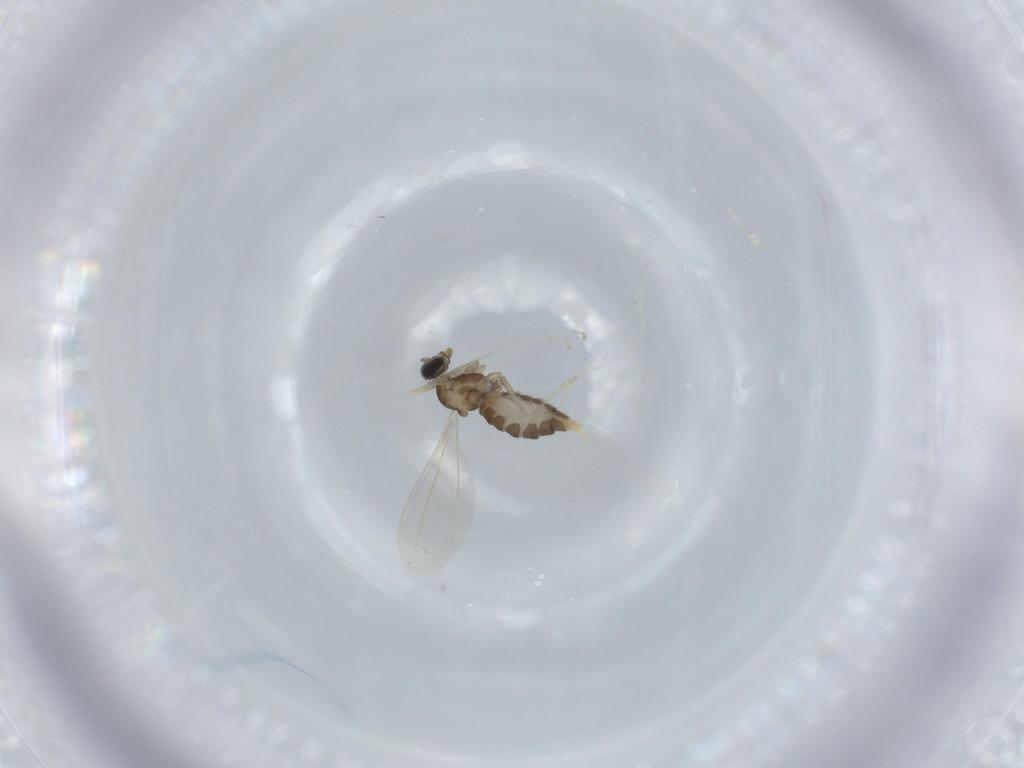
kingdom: Animalia
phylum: Arthropoda
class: Insecta
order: Diptera
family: Cecidomyiidae
